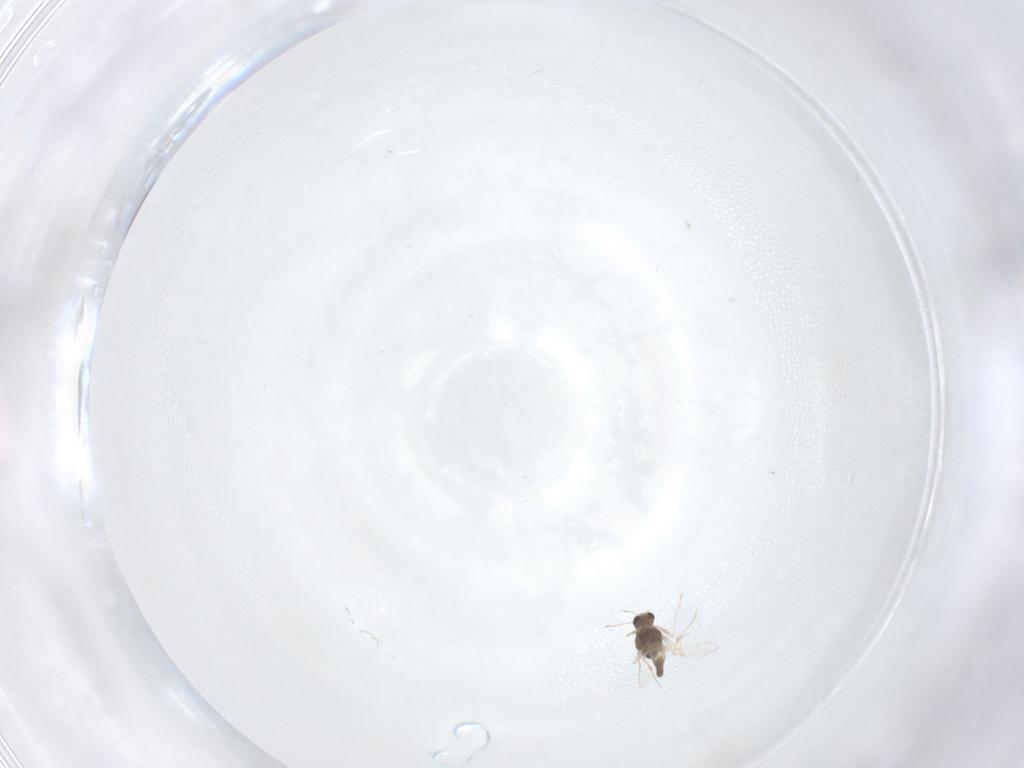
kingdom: Animalia
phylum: Arthropoda
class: Insecta
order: Diptera
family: Chironomidae
